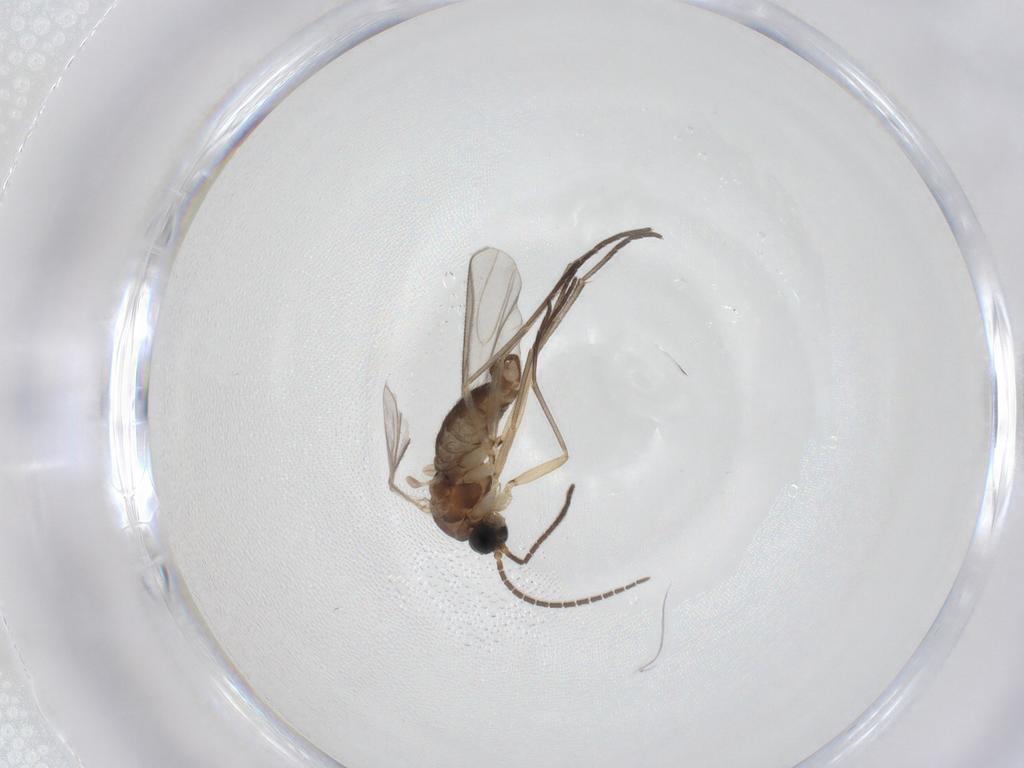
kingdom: Animalia
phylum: Arthropoda
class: Insecta
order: Diptera
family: Sciaridae
